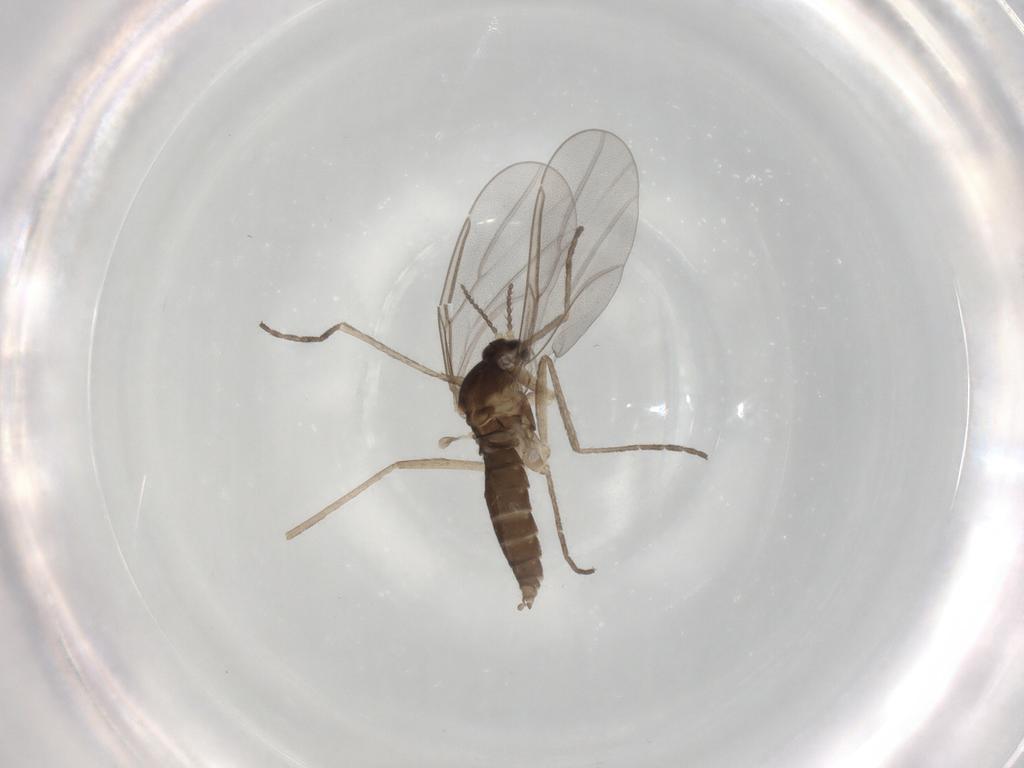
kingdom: Animalia
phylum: Arthropoda
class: Insecta
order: Diptera
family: Cecidomyiidae
